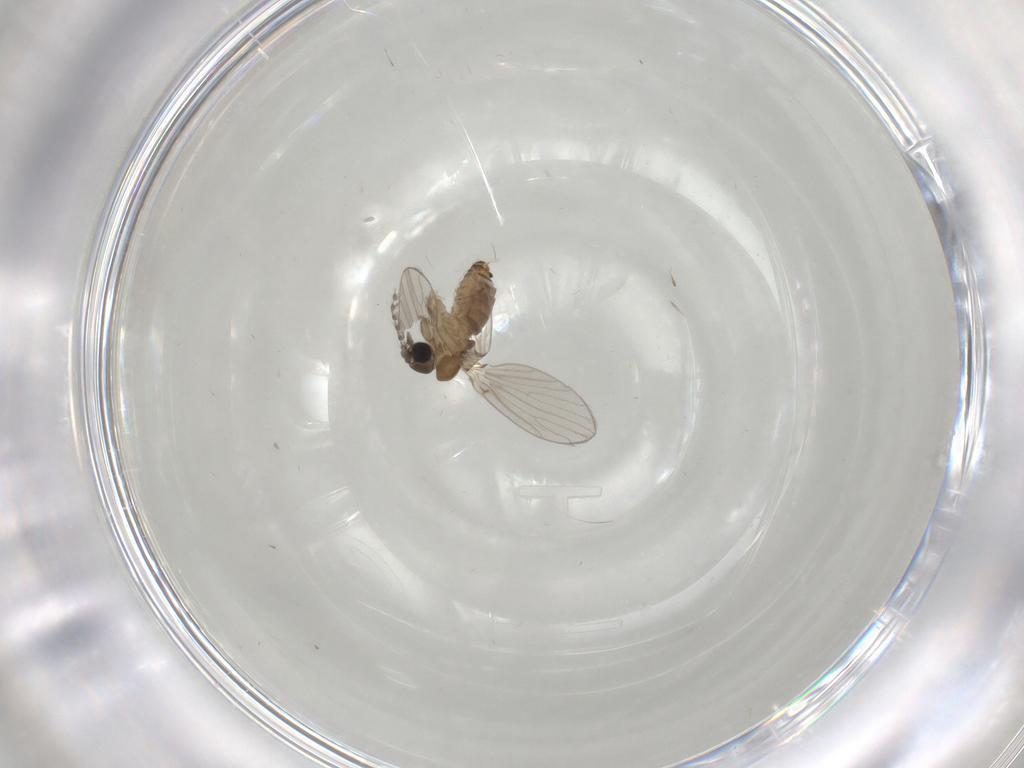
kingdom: Animalia
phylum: Arthropoda
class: Insecta
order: Diptera
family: Psychodidae
